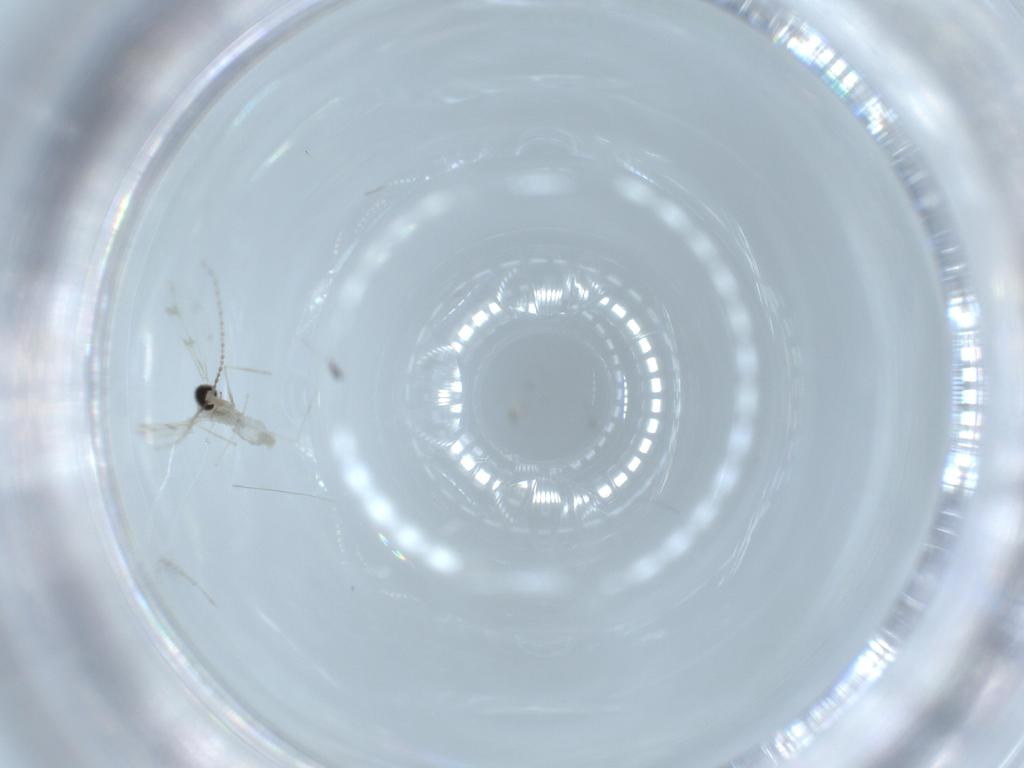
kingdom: Animalia
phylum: Arthropoda
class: Insecta
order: Diptera
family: Cecidomyiidae
